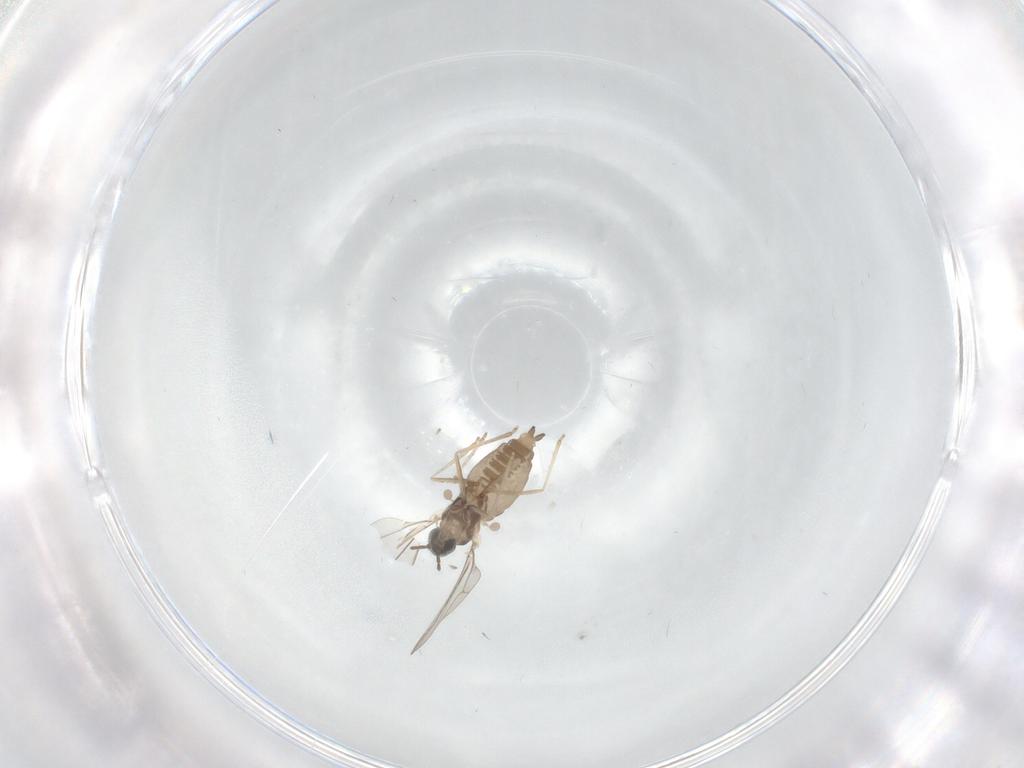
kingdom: Animalia
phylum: Arthropoda
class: Insecta
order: Diptera
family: Cecidomyiidae
